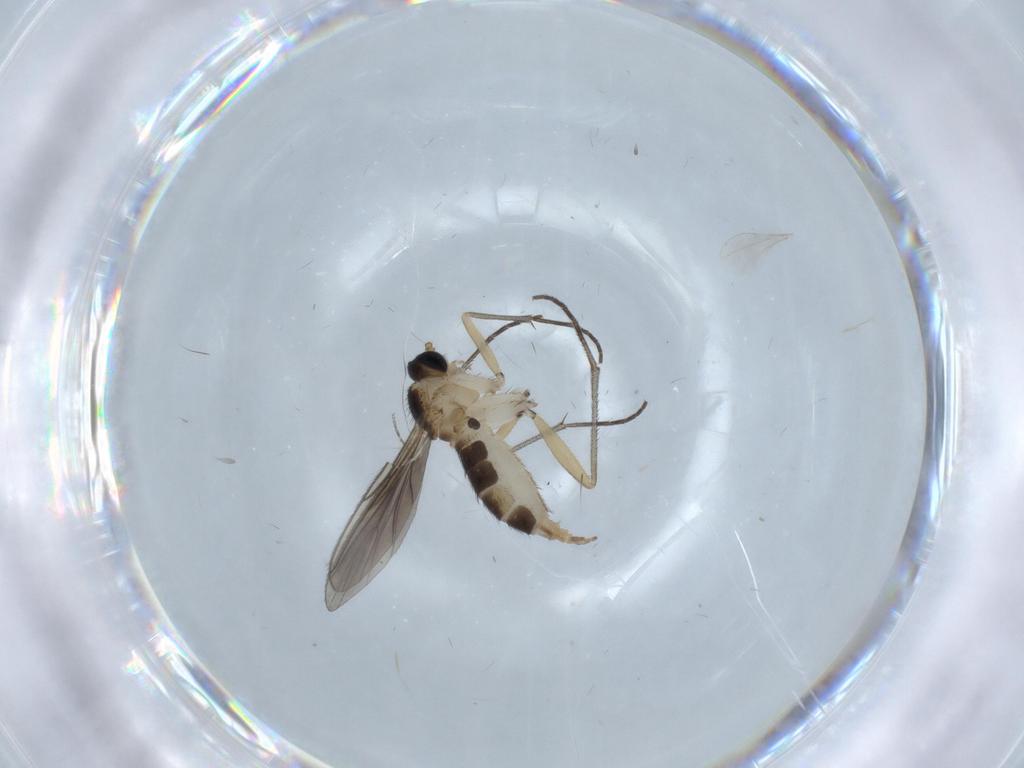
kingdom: Animalia
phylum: Arthropoda
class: Insecta
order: Diptera
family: Sciaridae
